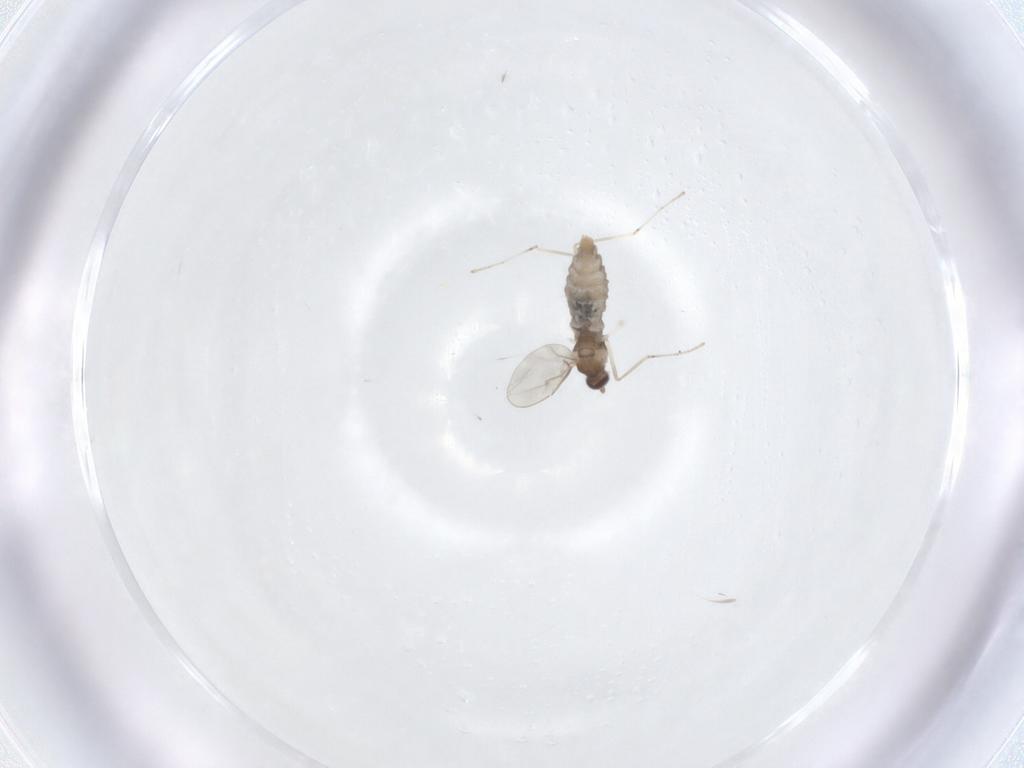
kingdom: Animalia
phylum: Arthropoda
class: Insecta
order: Diptera
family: Cecidomyiidae
